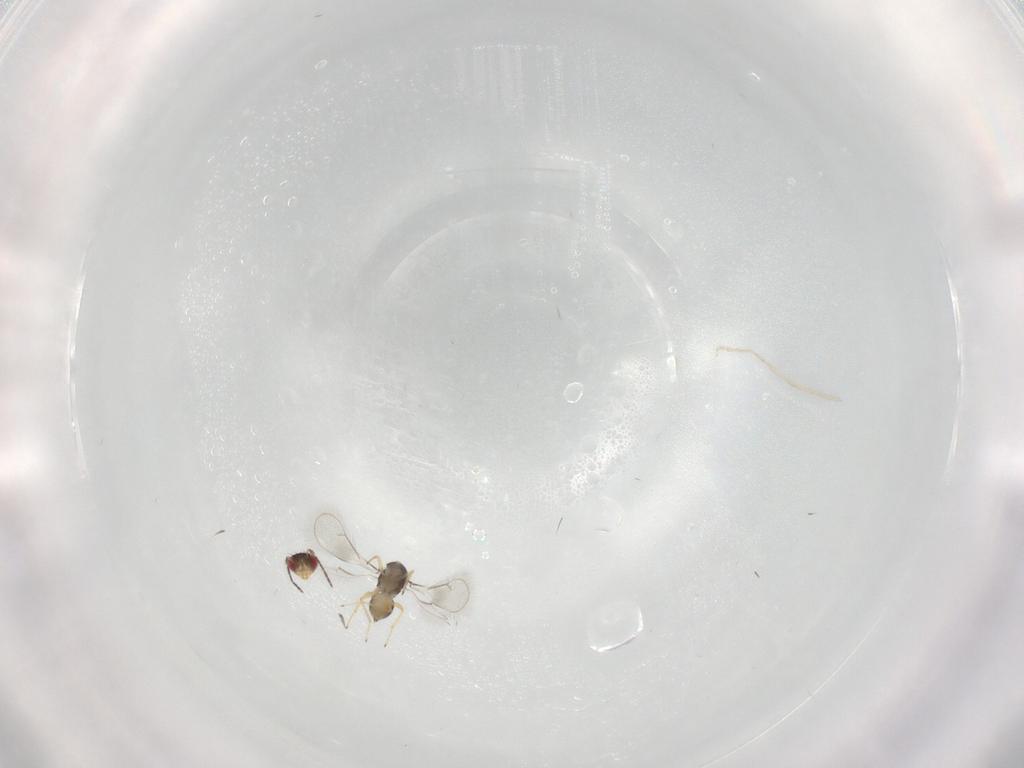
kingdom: Animalia
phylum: Arthropoda
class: Insecta
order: Hymenoptera
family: Eulophidae
